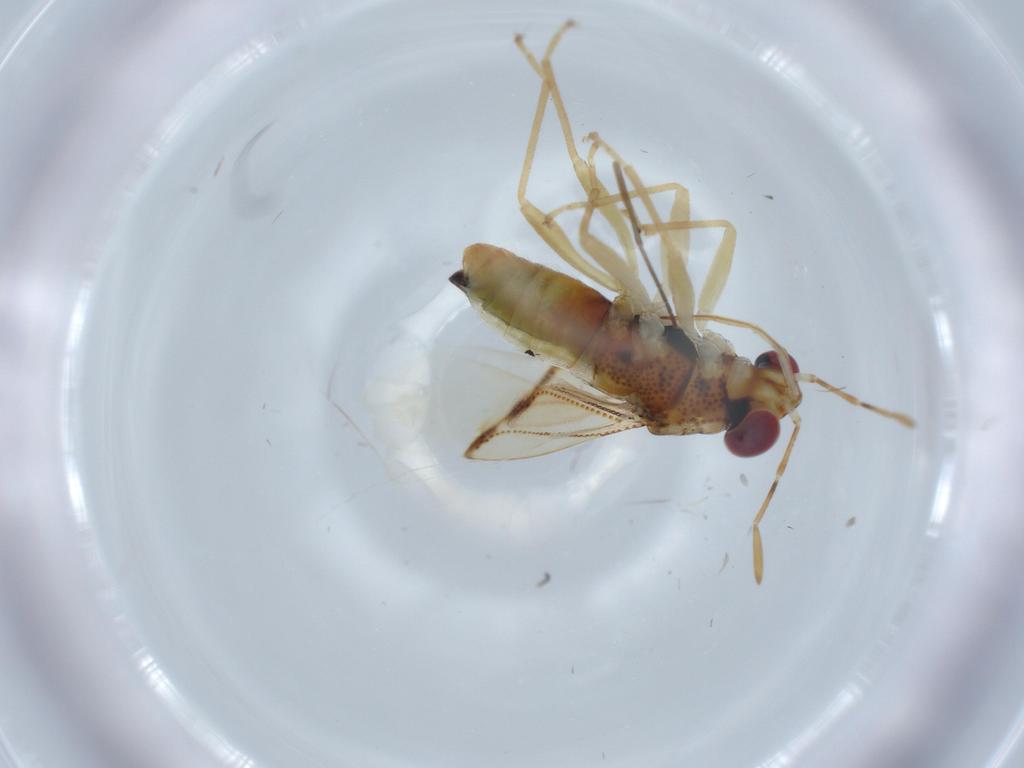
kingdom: Animalia
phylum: Arthropoda
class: Insecta
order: Hemiptera
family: Geocoridae
